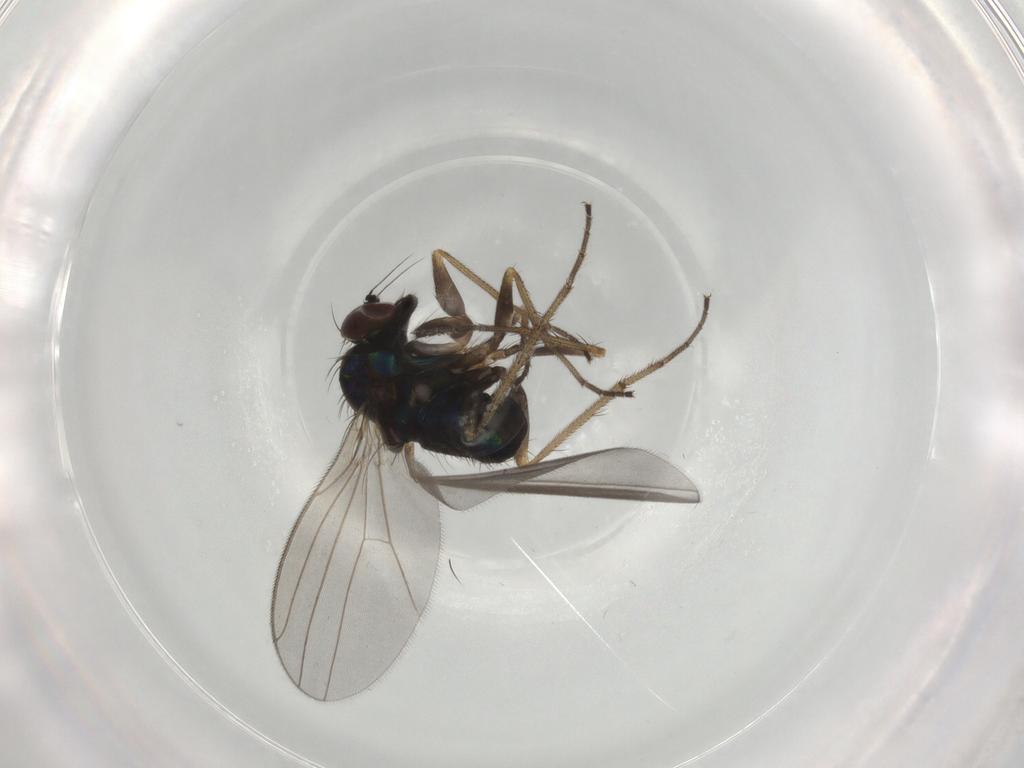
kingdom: Animalia
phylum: Arthropoda
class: Insecta
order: Diptera
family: Dolichopodidae
